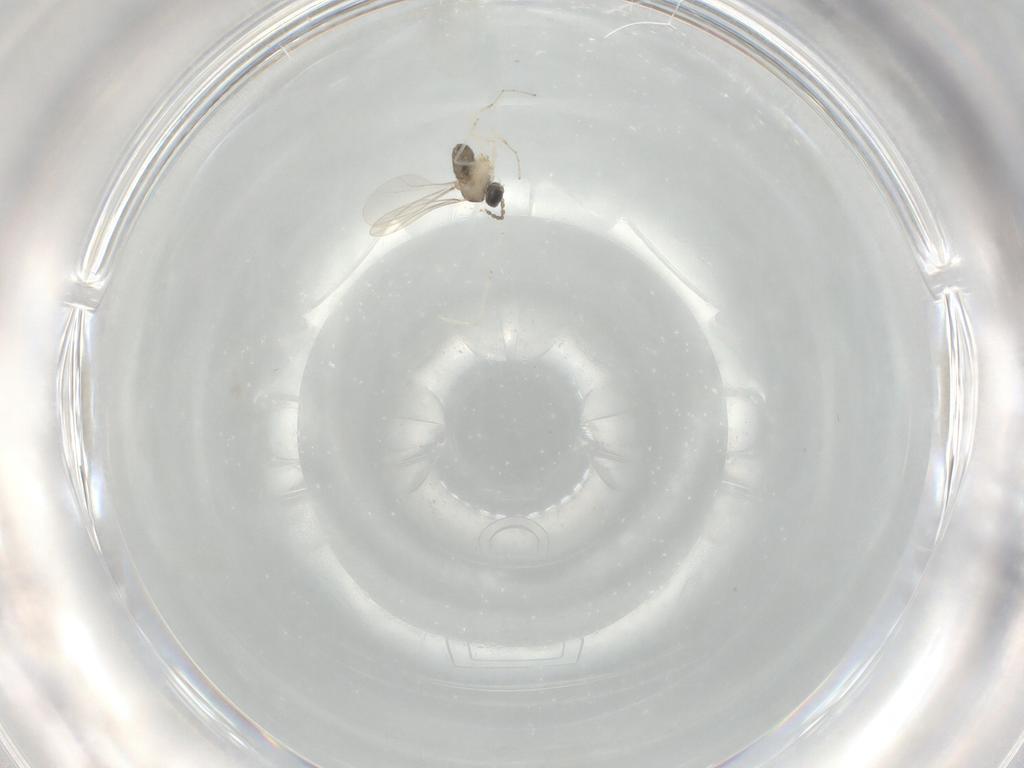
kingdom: Animalia
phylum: Arthropoda
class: Insecta
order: Diptera
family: Cecidomyiidae
